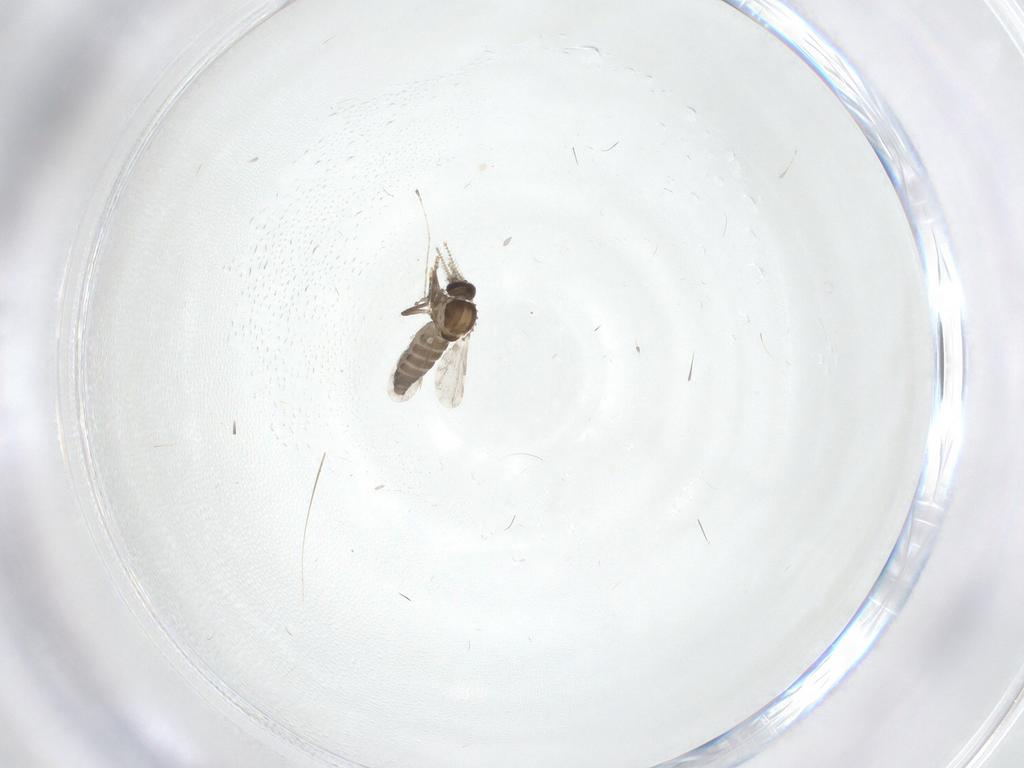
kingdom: Animalia
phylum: Arthropoda
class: Insecta
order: Diptera
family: Ceratopogonidae
